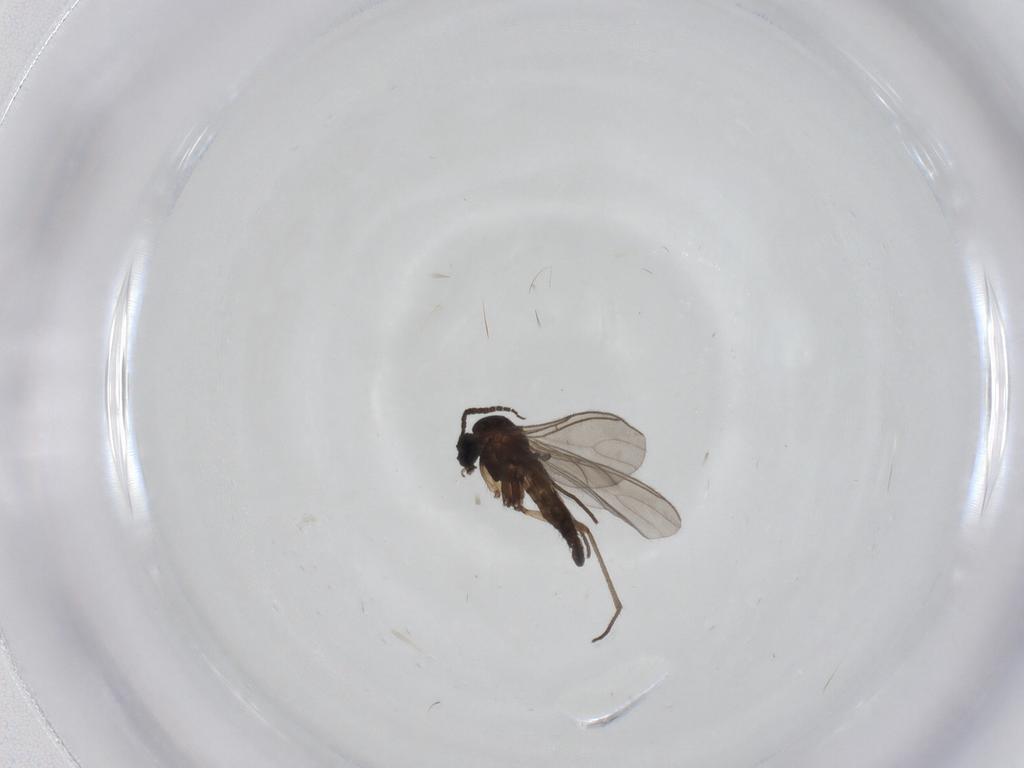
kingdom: Animalia
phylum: Arthropoda
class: Insecta
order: Diptera
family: Sciaridae
